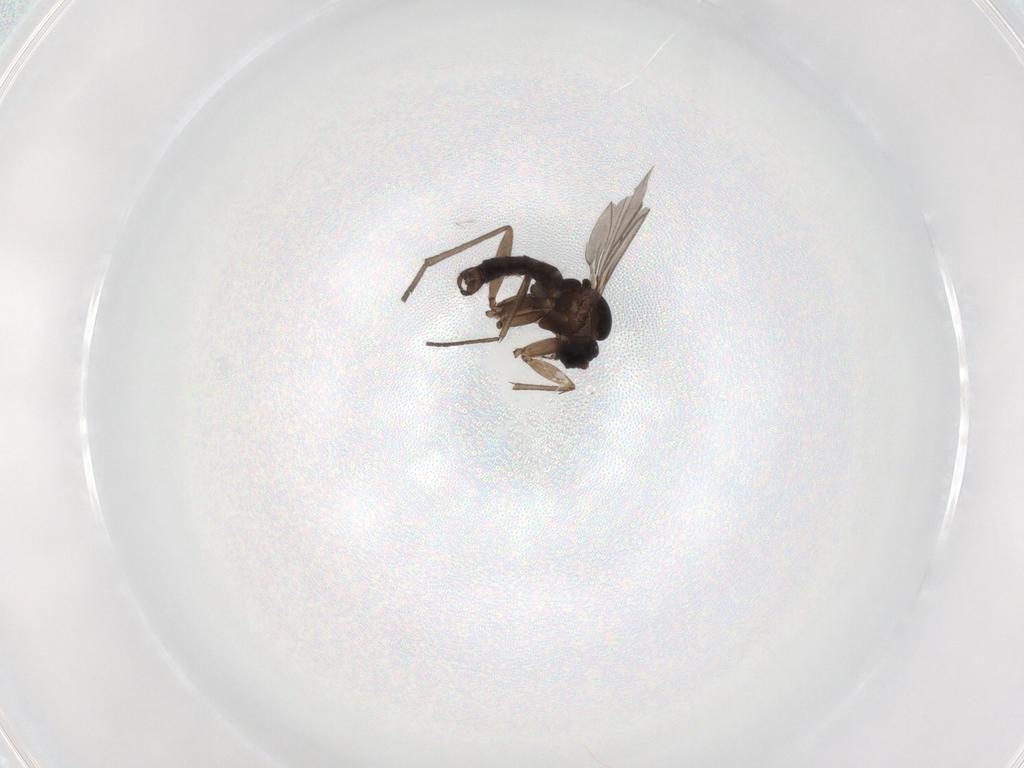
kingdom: Animalia
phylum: Arthropoda
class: Insecta
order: Diptera
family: Sciaridae
